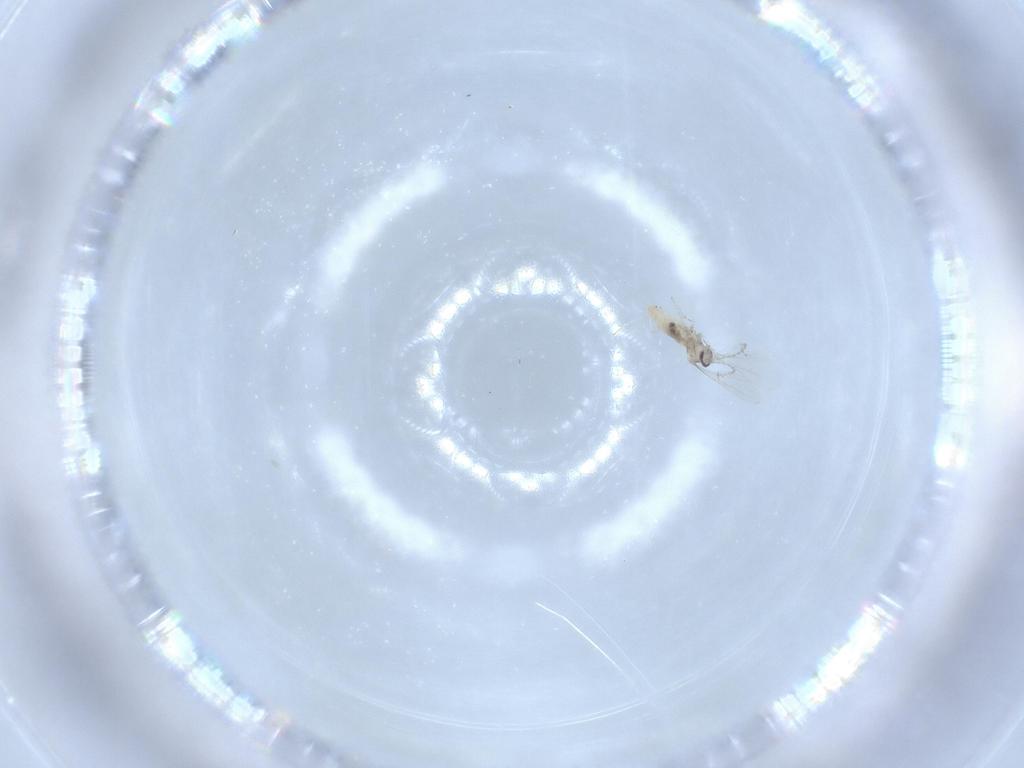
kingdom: Animalia
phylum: Arthropoda
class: Insecta
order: Diptera
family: Cecidomyiidae
